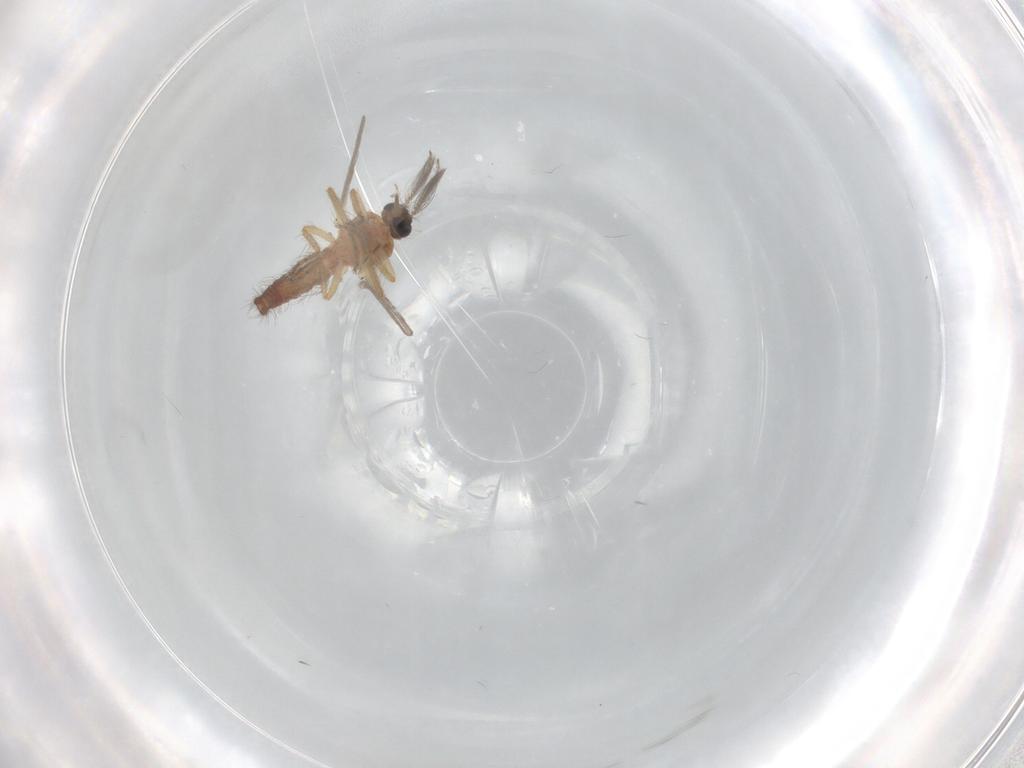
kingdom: Animalia
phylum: Arthropoda
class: Insecta
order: Diptera
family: Ceratopogonidae
